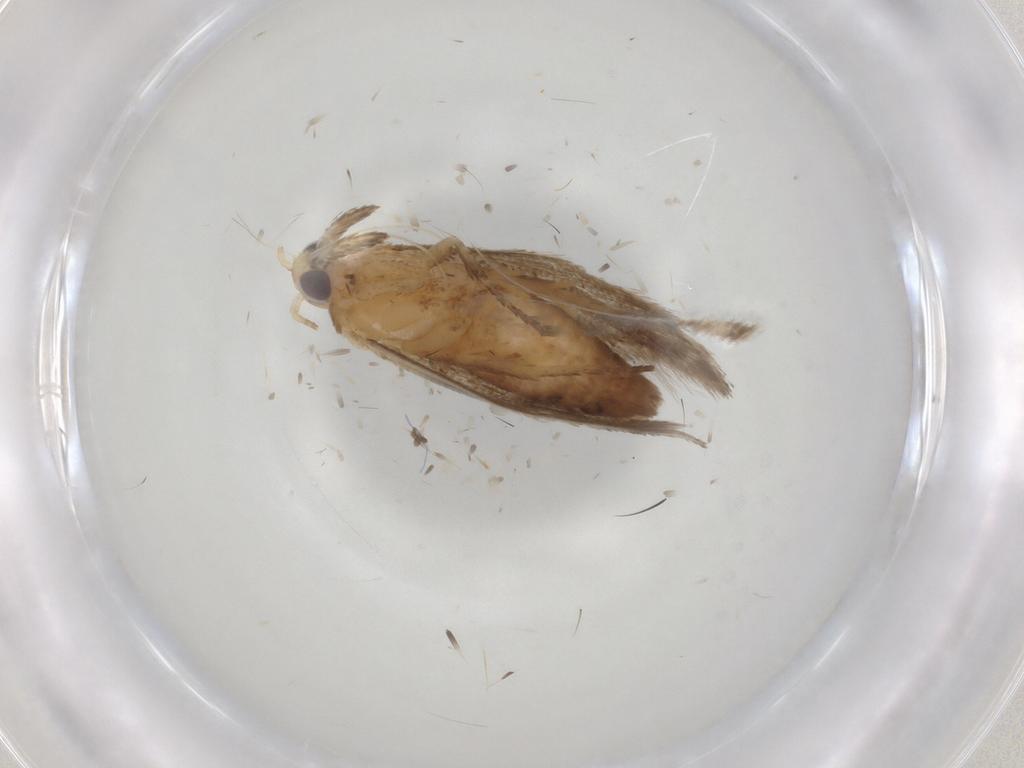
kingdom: Animalia
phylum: Arthropoda
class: Insecta
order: Lepidoptera
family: Plutellidae
